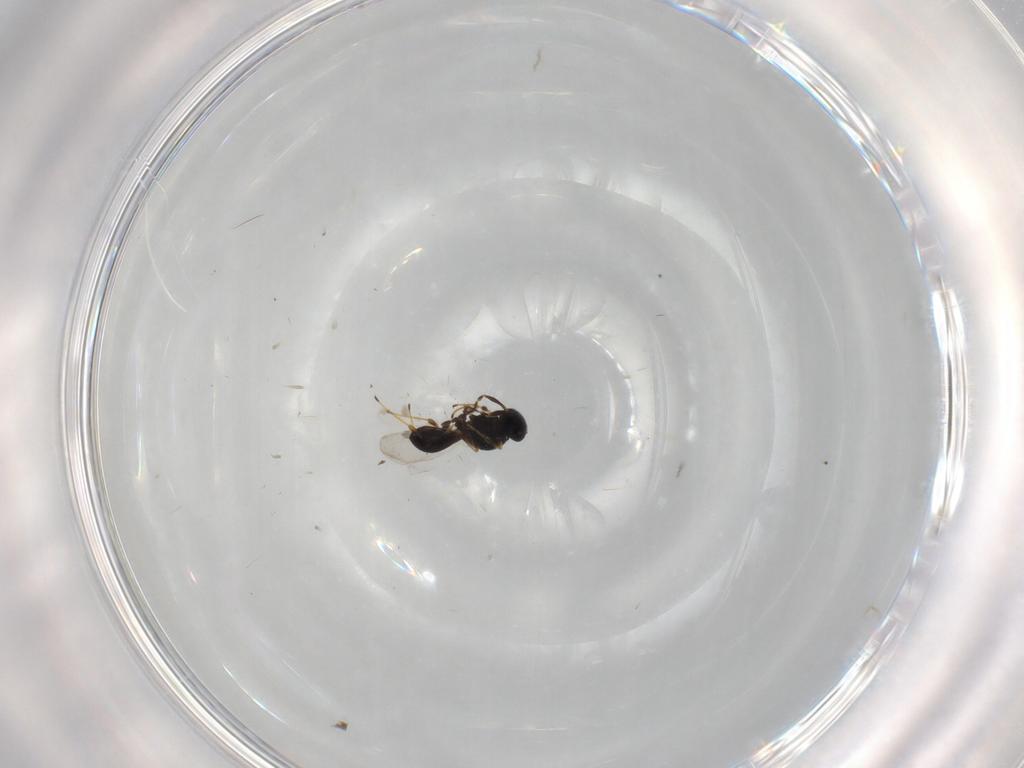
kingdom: Animalia
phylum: Arthropoda
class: Insecta
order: Hymenoptera
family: Platygastridae
